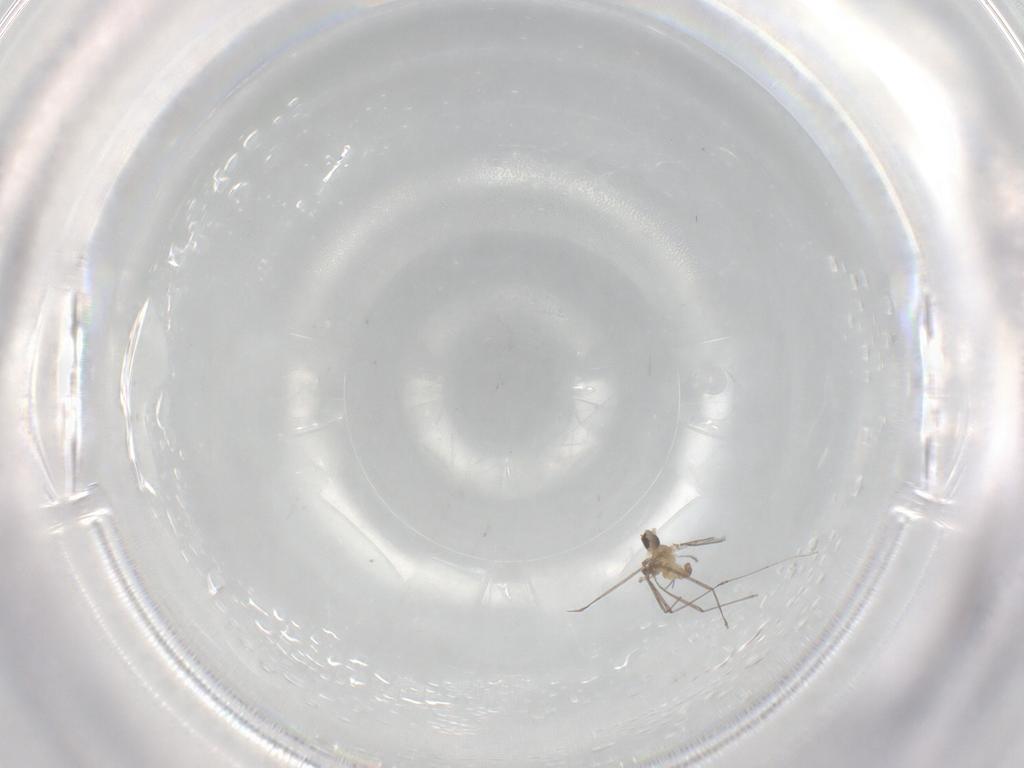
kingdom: Animalia
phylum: Arthropoda
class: Insecta
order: Diptera
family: Cecidomyiidae
